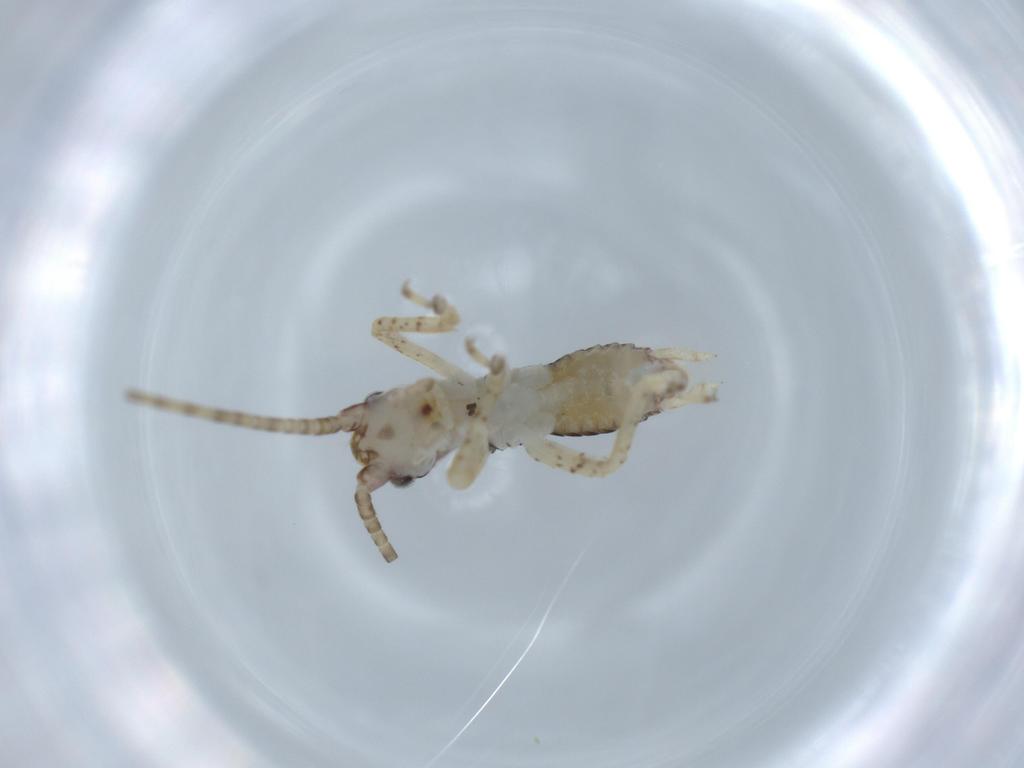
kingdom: Animalia
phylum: Arthropoda
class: Insecta
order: Orthoptera
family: Gryllidae
